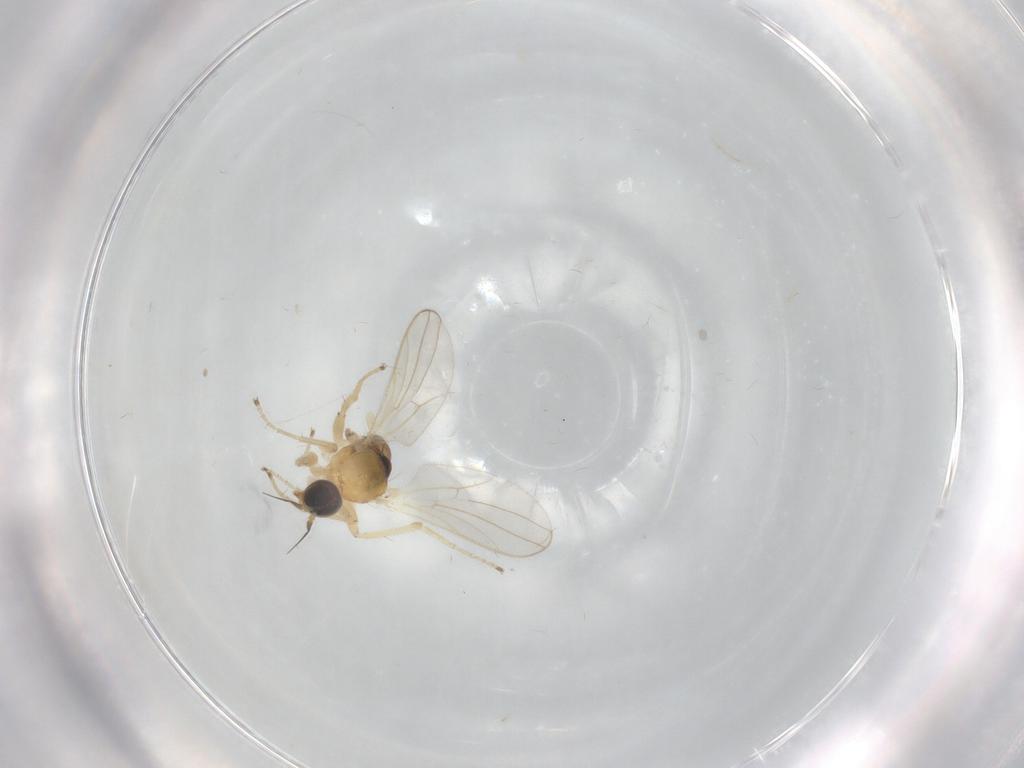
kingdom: Animalia
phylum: Arthropoda
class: Insecta
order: Diptera
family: Hybotidae
